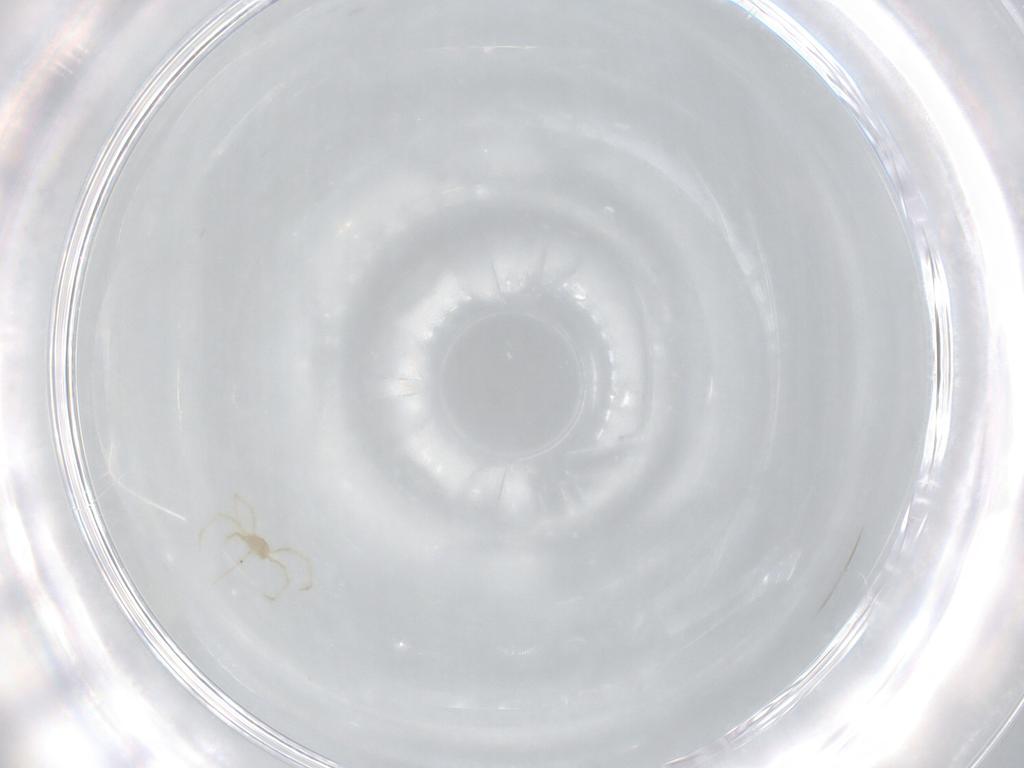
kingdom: Animalia
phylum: Arthropoda
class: Arachnida
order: Trombidiformes
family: Erythraeidae
